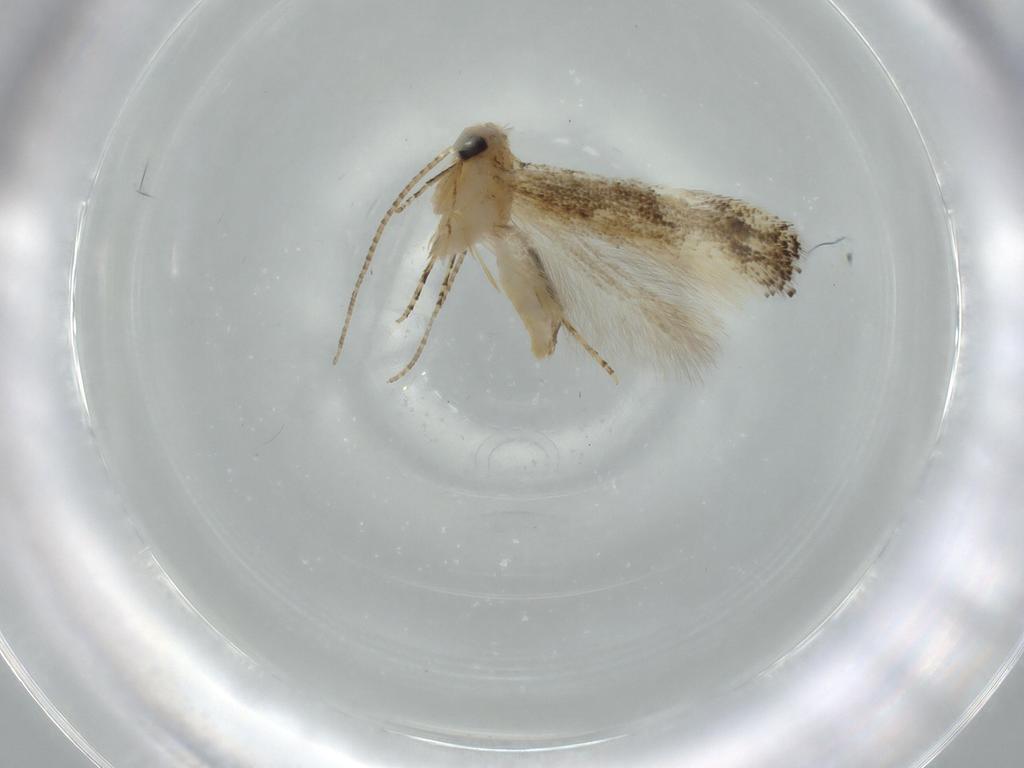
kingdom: Animalia
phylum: Arthropoda
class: Insecta
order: Lepidoptera
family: Bucculatricidae
